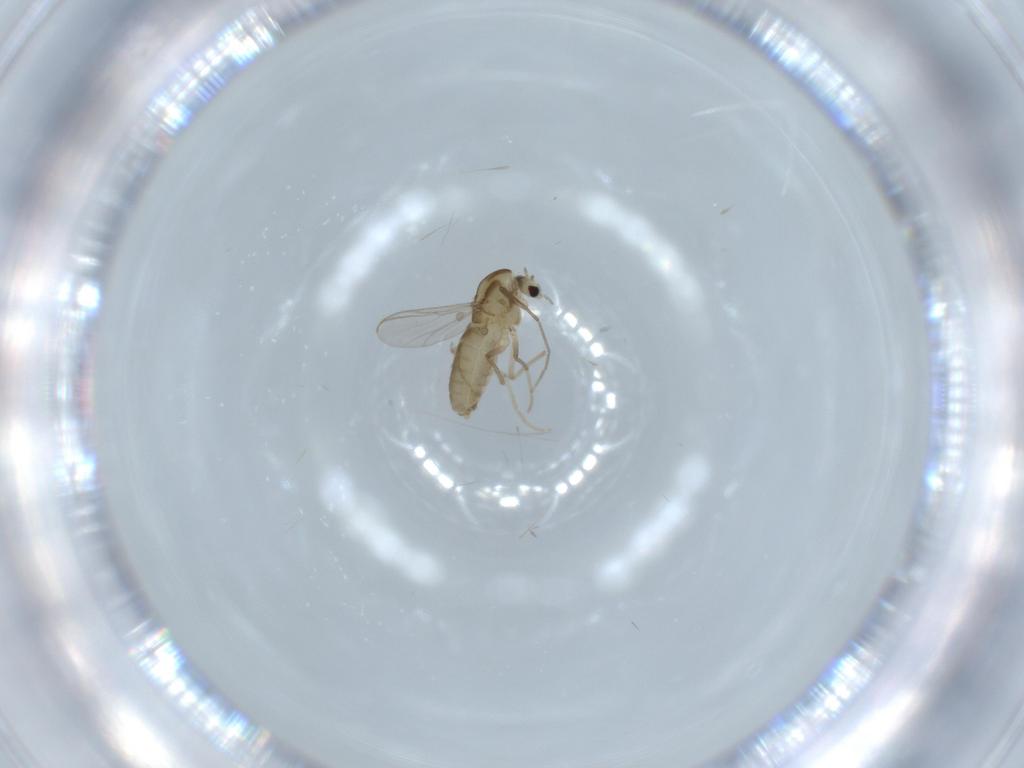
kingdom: Animalia
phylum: Arthropoda
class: Insecta
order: Diptera
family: Chironomidae
